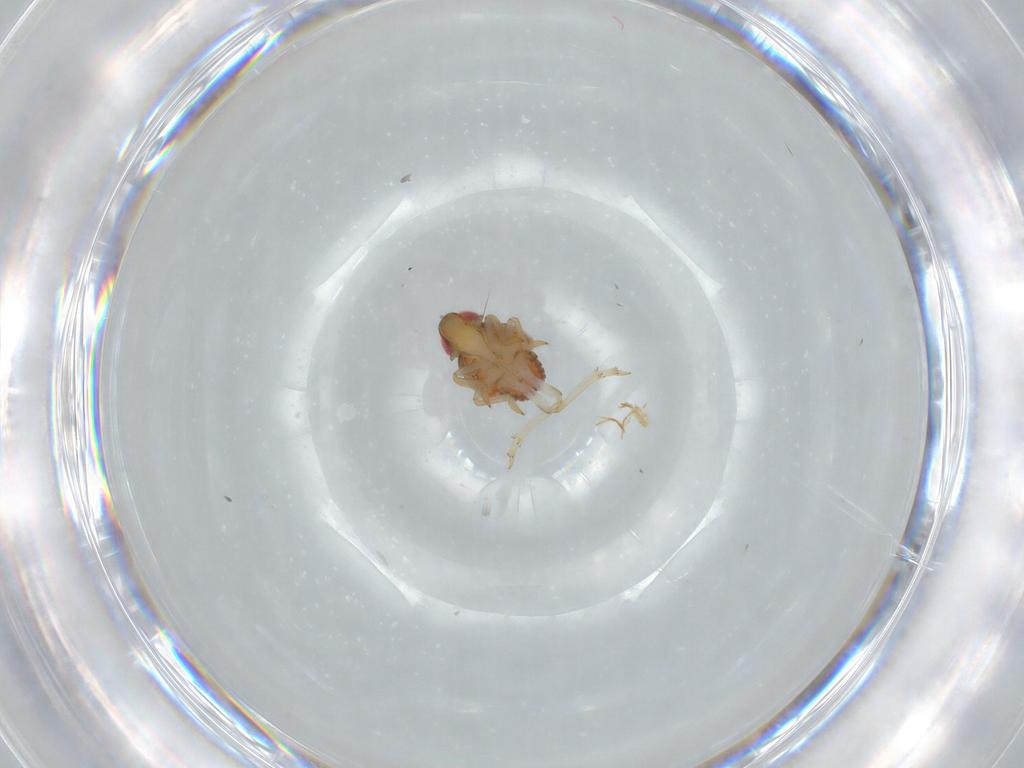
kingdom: Animalia
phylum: Arthropoda
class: Insecta
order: Hemiptera
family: Issidae
